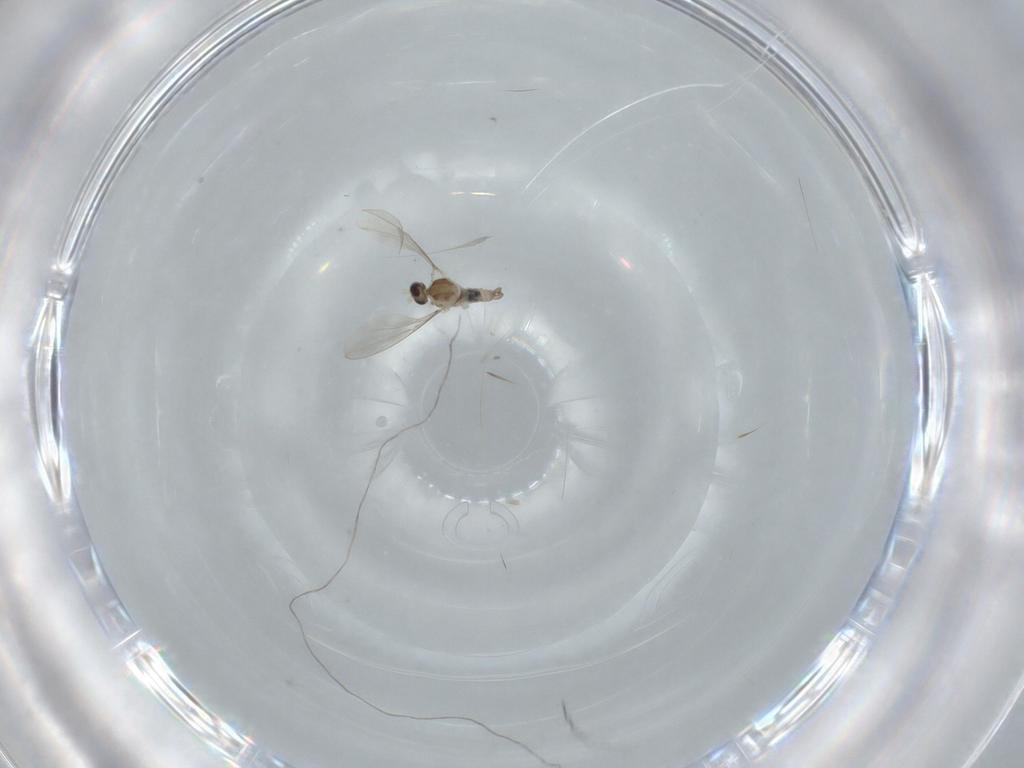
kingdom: Animalia
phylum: Arthropoda
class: Insecta
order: Diptera
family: Cecidomyiidae
